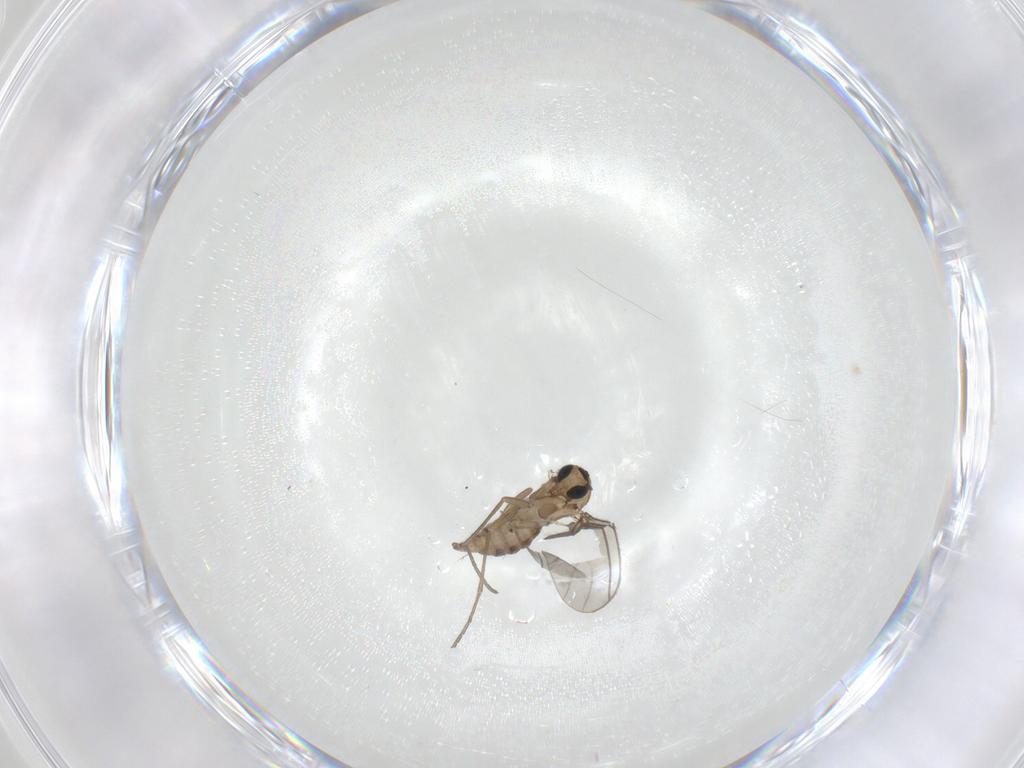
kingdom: Animalia
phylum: Arthropoda
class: Insecta
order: Diptera
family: Sciaridae
